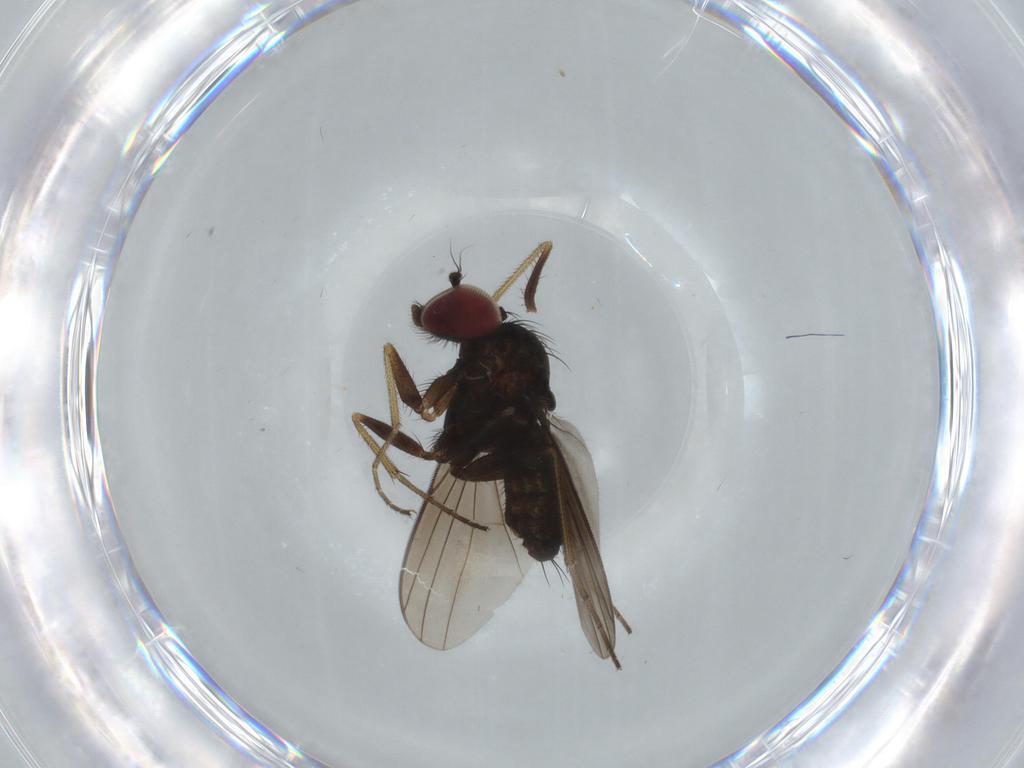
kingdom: Animalia
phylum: Arthropoda
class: Insecta
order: Diptera
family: Dolichopodidae
